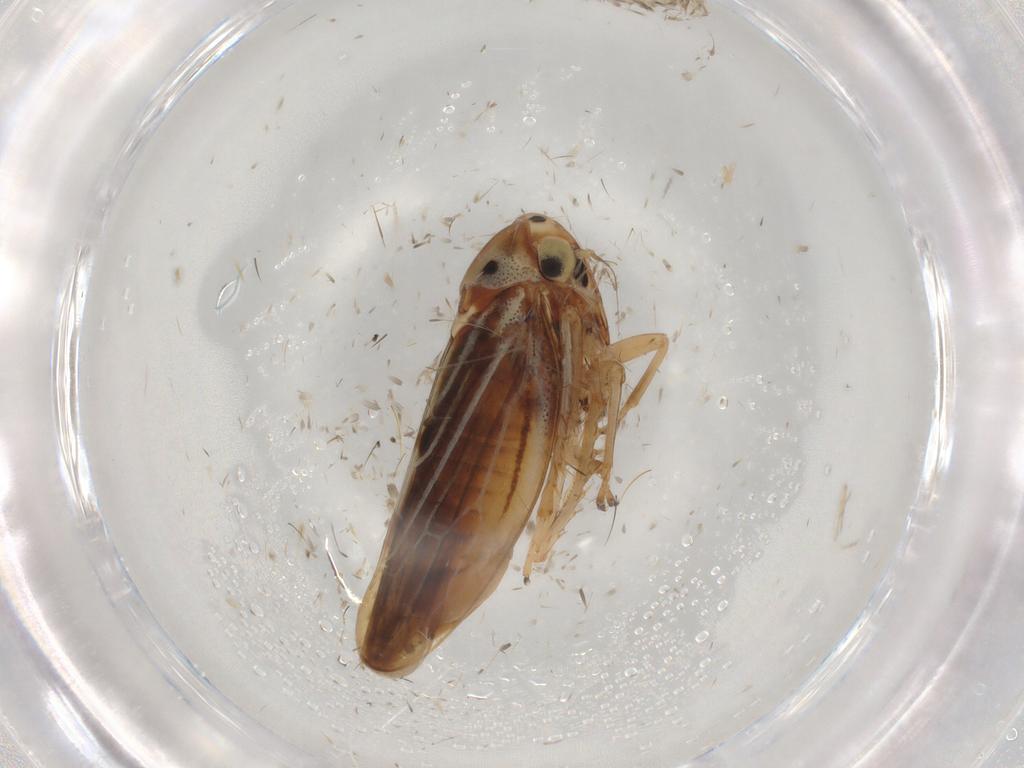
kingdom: Animalia
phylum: Arthropoda
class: Insecta
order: Hemiptera
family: Cicadellidae
